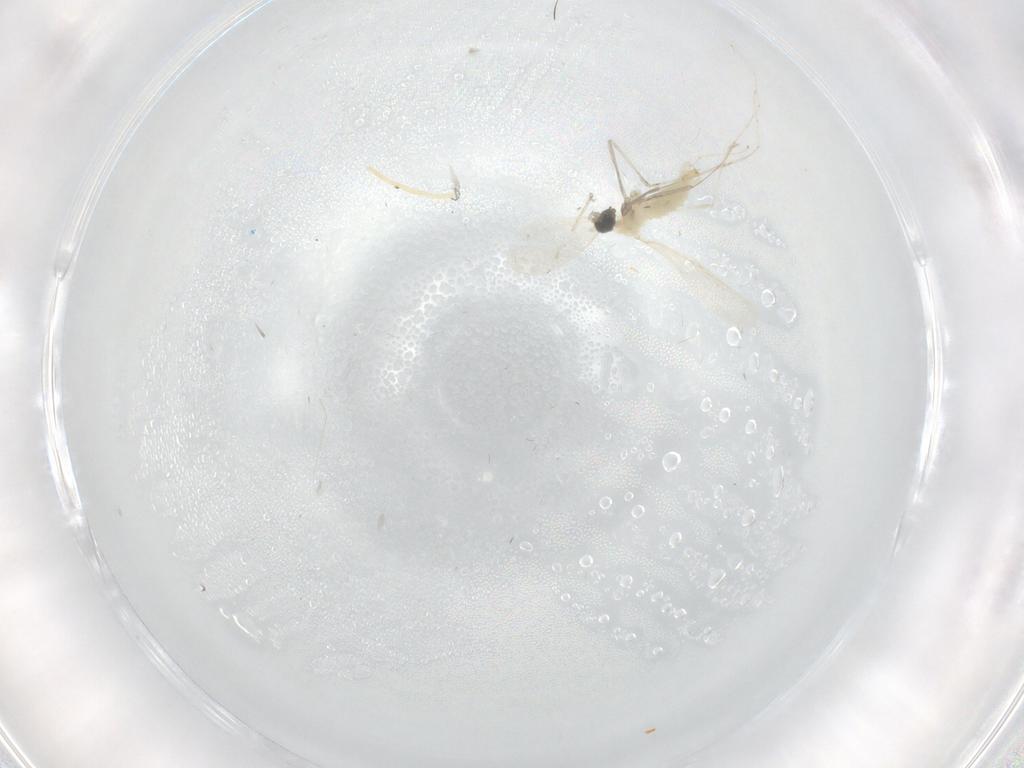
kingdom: Animalia
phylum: Arthropoda
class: Insecta
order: Diptera
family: Cecidomyiidae
